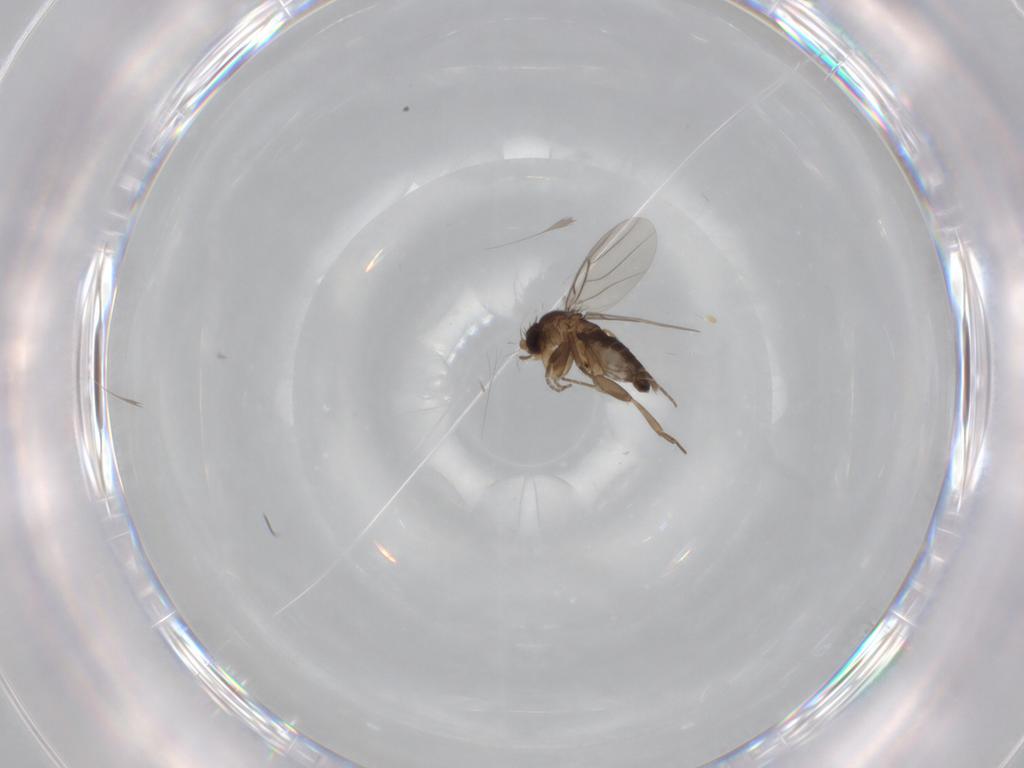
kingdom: Animalia
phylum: Arthropoda
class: Insecta
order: Diptera
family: Phoridae
